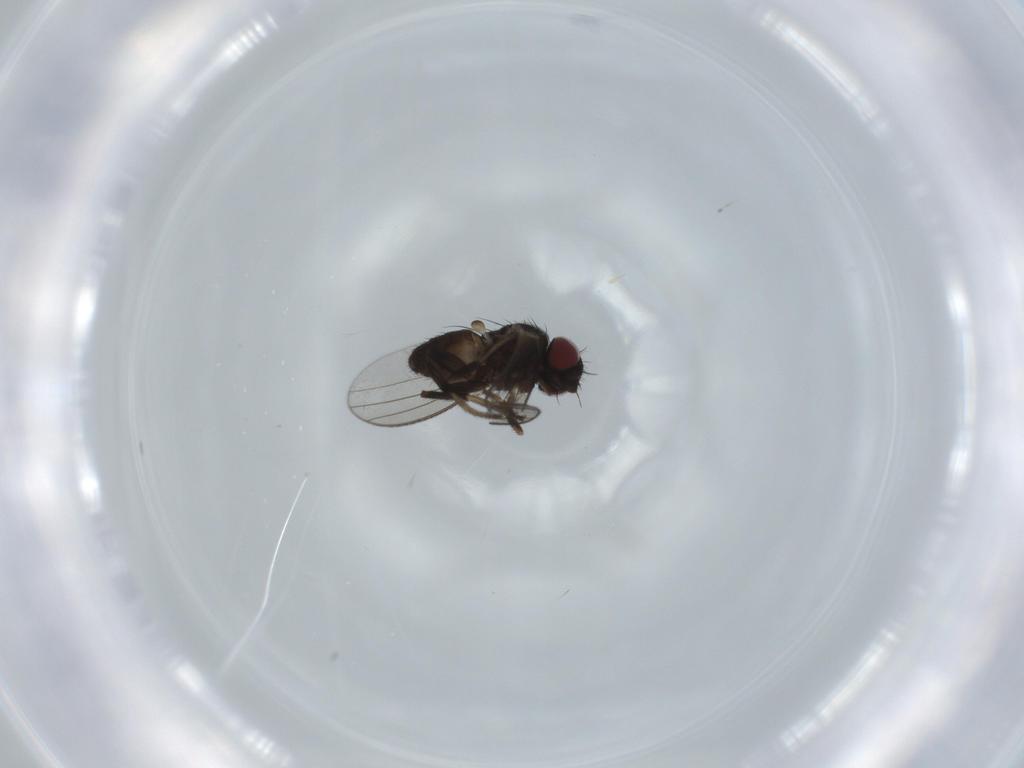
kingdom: Animalia
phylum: Arthropoda
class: Insecta
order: Diptera
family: Milichiidae
